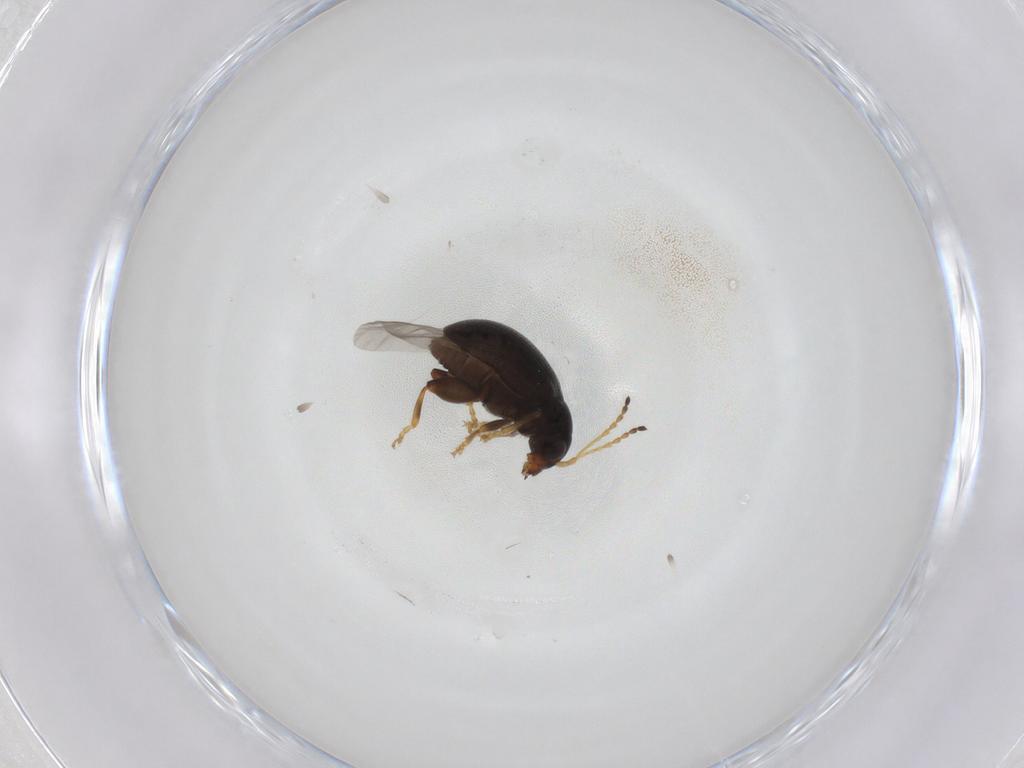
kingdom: Animalia
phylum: Arthropoda
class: Insecta
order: Coleoptera
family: Chrysomelidae
